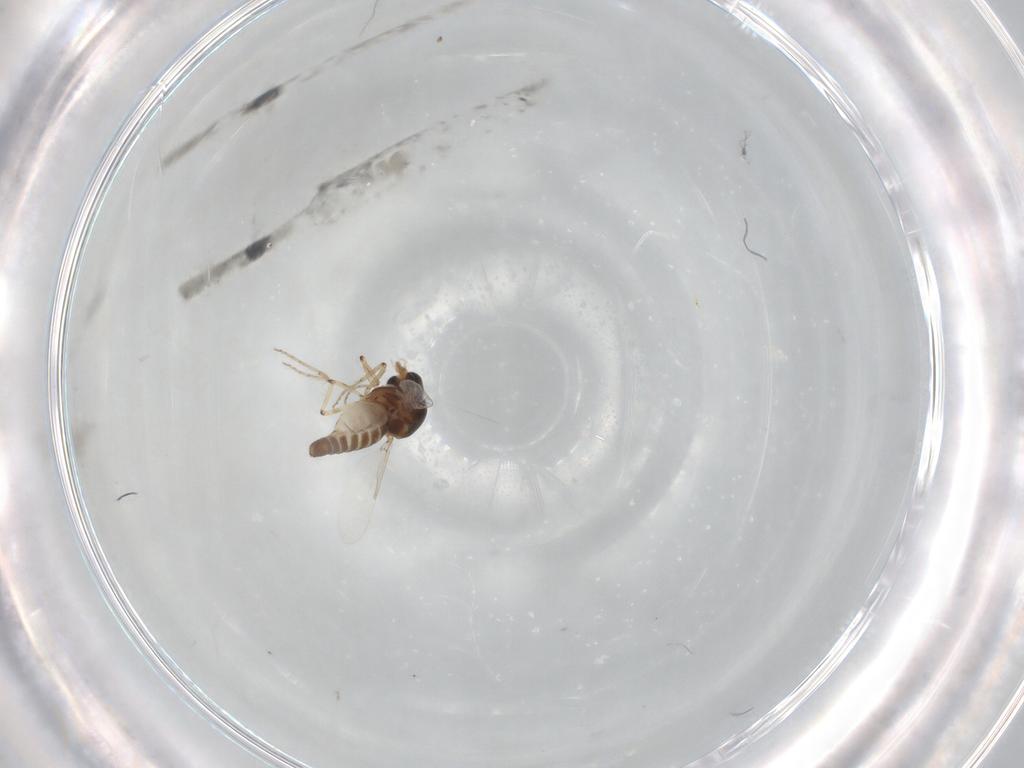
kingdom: Animalia
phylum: Arthropoda
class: Insecta
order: Diptera
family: Ceratopogonidae
